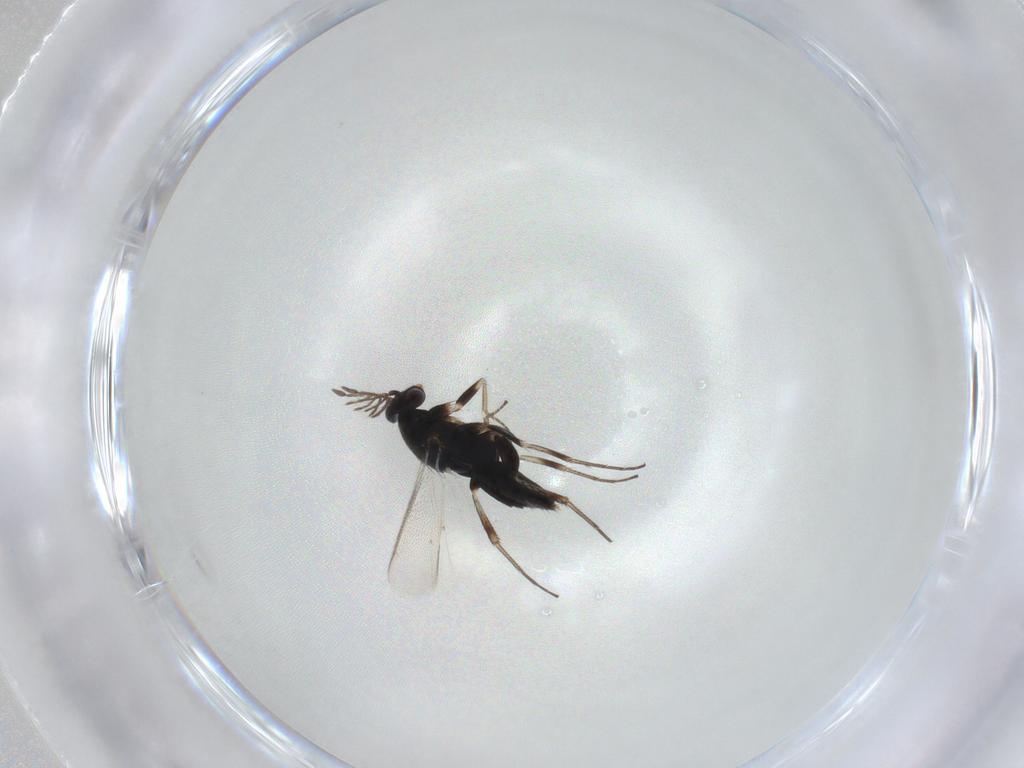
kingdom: Animalia
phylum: Arthropoda
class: Insecta
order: Hymenoptera
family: Eulophidae
